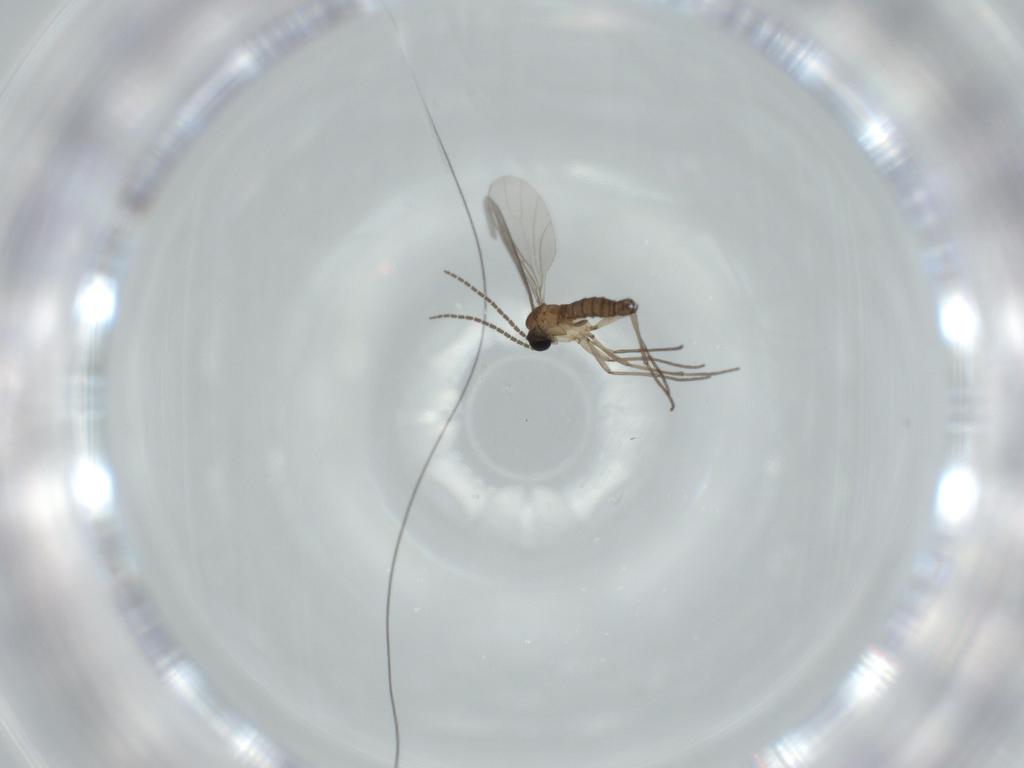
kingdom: Animalia
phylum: Arthropoda
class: Insecta
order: Diptera
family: Sciaridae
